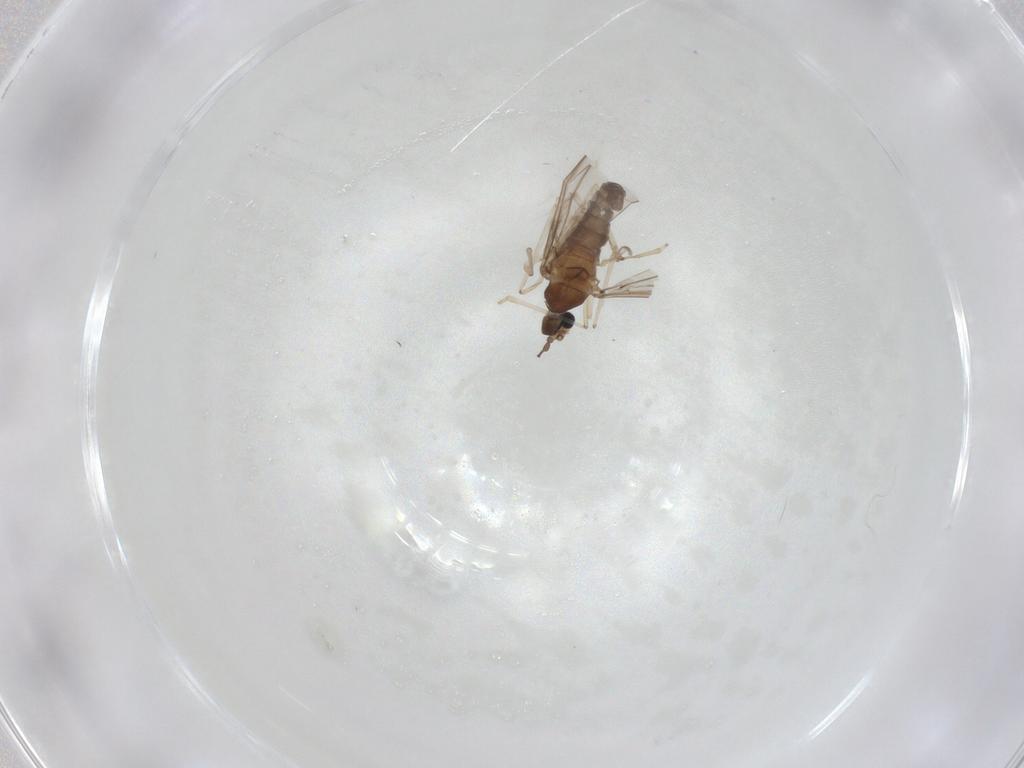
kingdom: Animalia
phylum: Arthropoda
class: Insecta
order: Diptera
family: Cecidomyiidae
